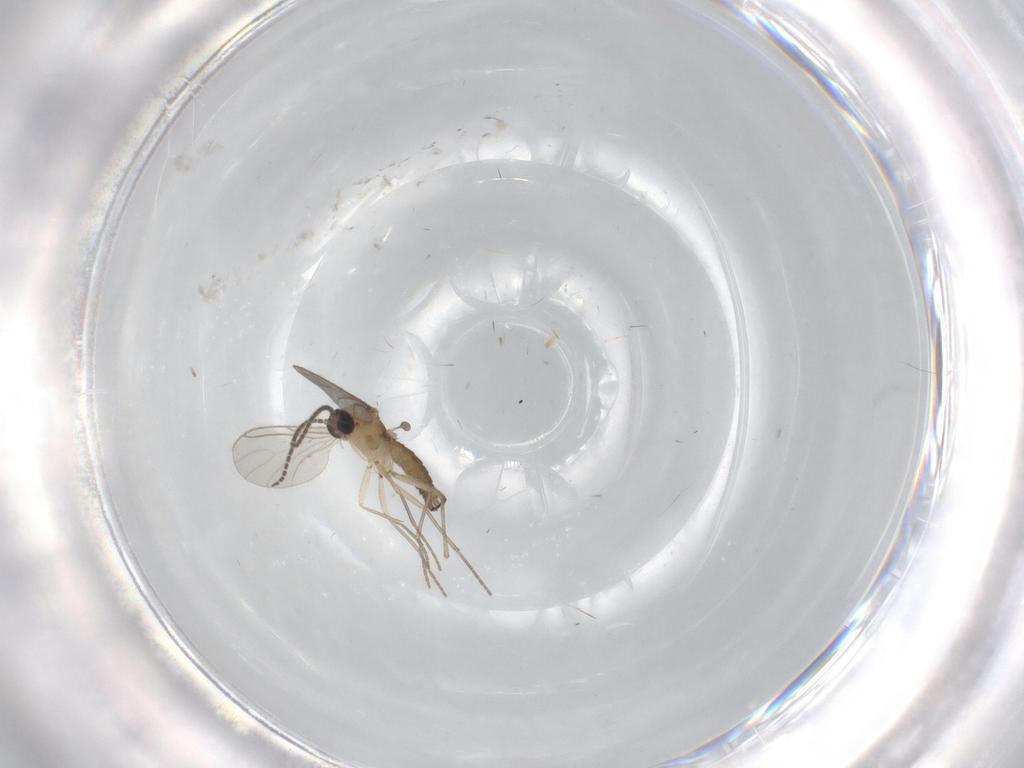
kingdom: Animalia
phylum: Arthropoda
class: Insecta
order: Diptera
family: Sciaridae
